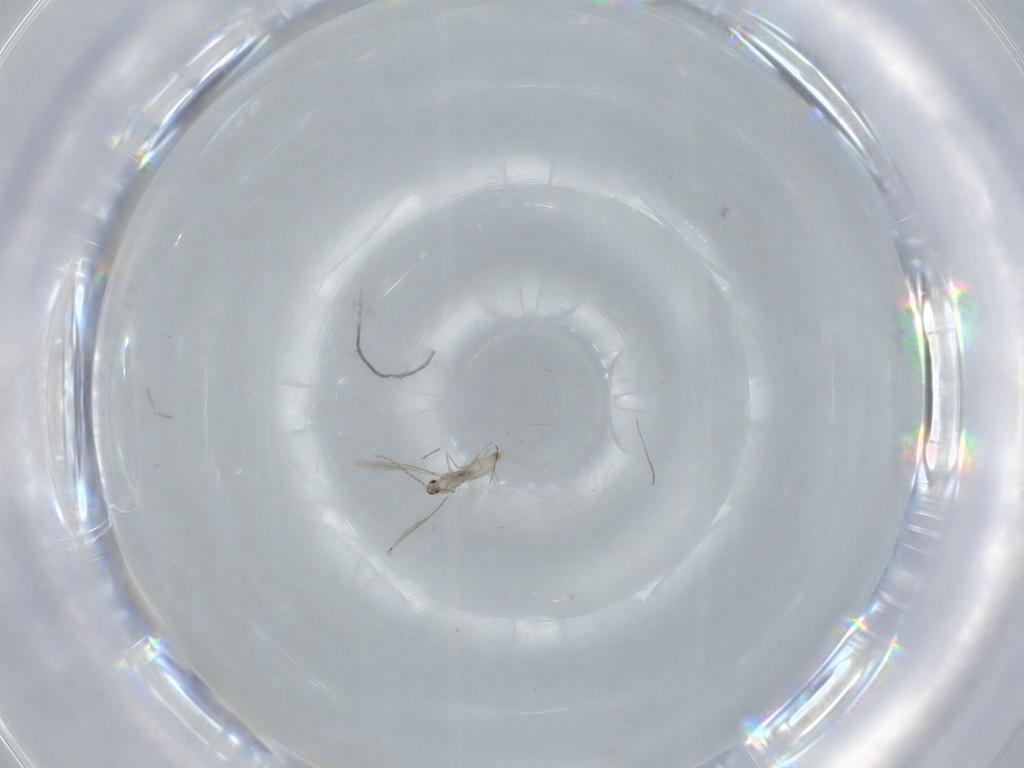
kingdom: Animalia
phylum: Arthropoda
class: Insecta
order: Diptera
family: Cecidomyiidae
